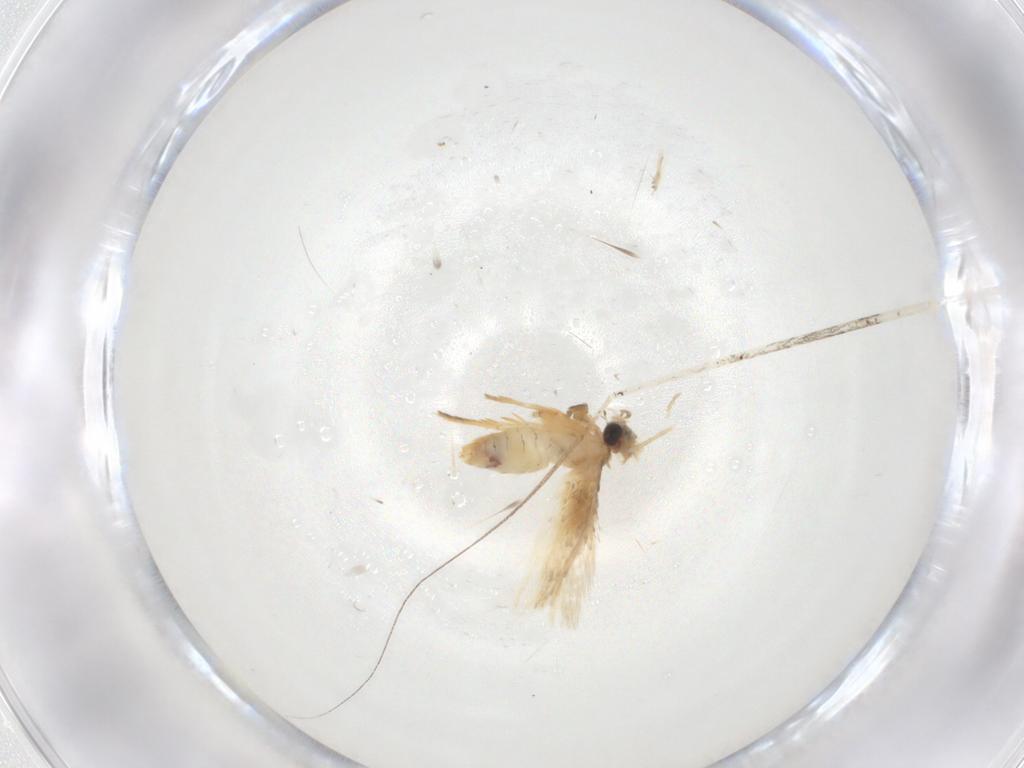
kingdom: Animalia
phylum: Arthropoda
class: Insecta
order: Lepidoptera
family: Nepticulidae
